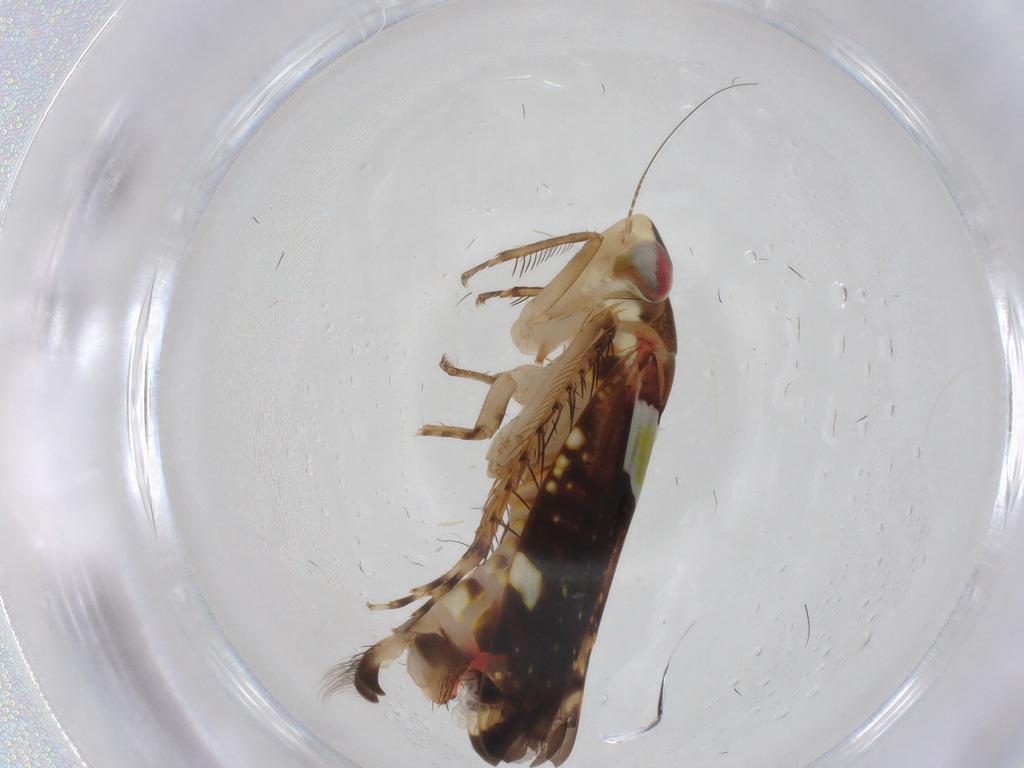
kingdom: Animalia
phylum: Arthropoda
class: Insecta
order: Hemiptera
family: Cicadellidae
